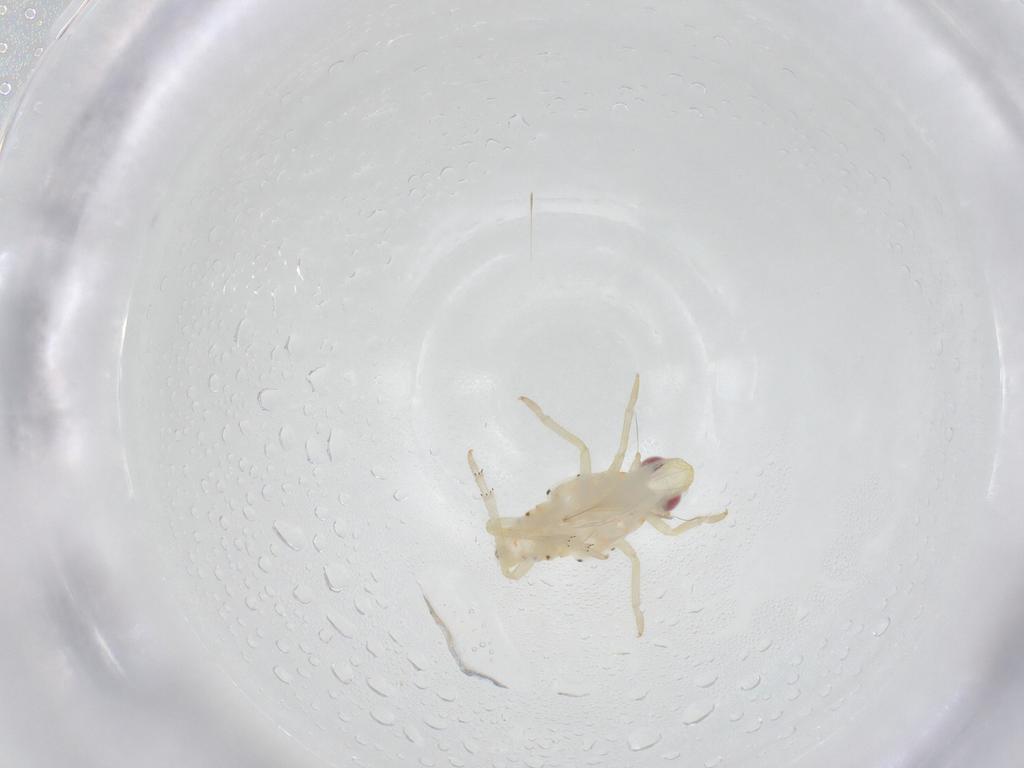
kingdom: Animalia
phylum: Arthropoda
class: Insecta
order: Hemiptera
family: Tropiduchidae
